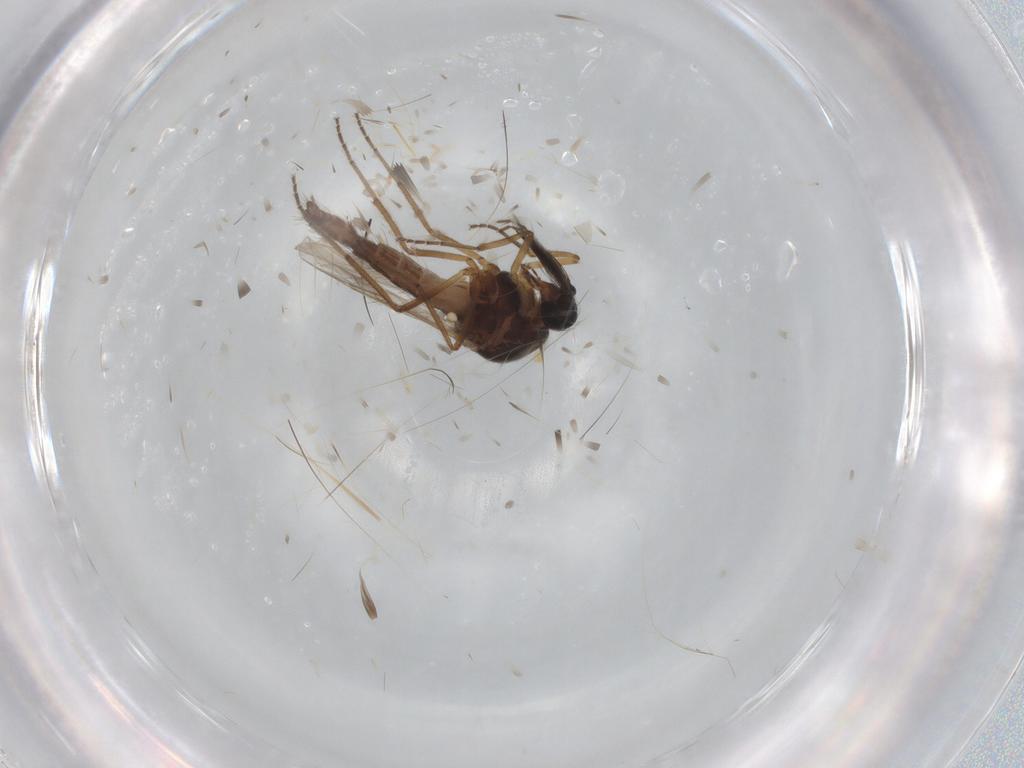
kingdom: Animalia
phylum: Arthropoda
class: Insecta
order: Diptera
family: Ceratopogonidae
